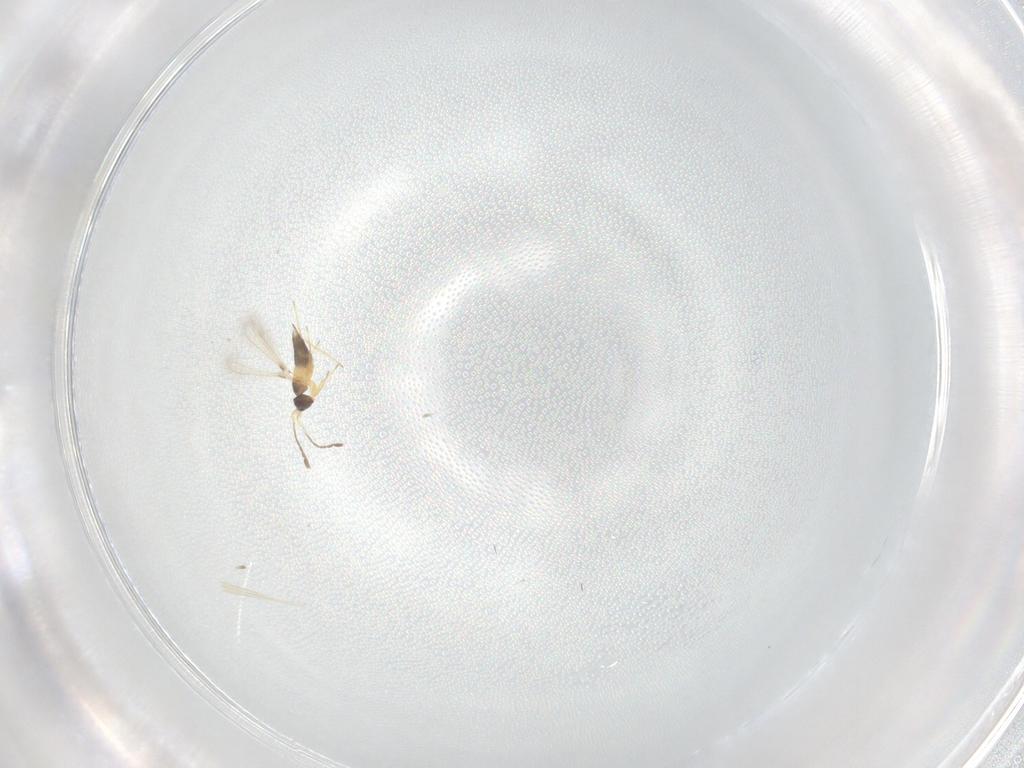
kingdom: Animalia
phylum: Arthropoda
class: Insecta
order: Hymenoptera
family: Mymaridae
